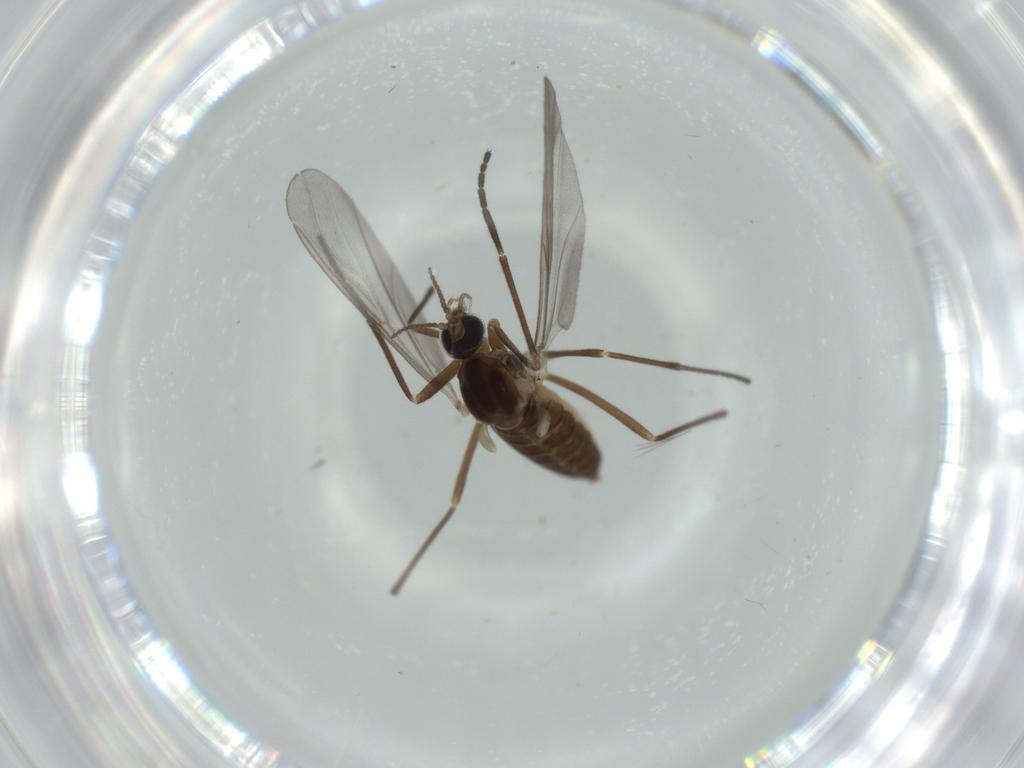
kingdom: Animalia
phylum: Arthropoda
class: Insecta
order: Diptera
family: Cecidomyiidae
